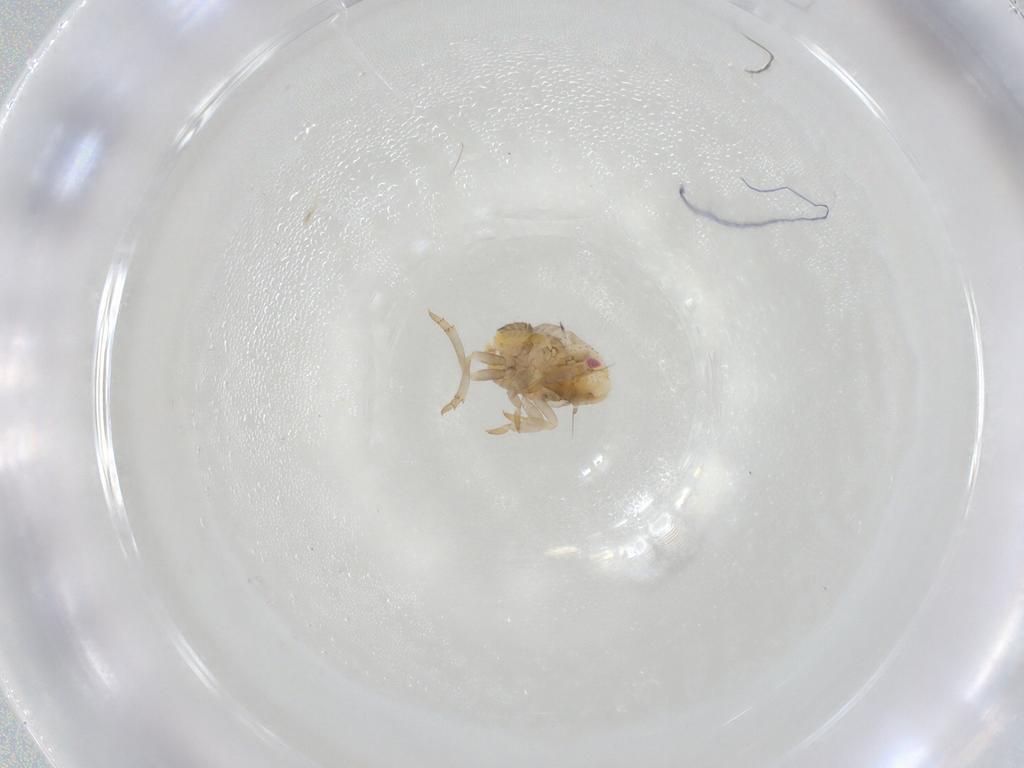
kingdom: Animalia
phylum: Arthropoda
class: Insecta
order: Hemiptera
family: Flatidae
